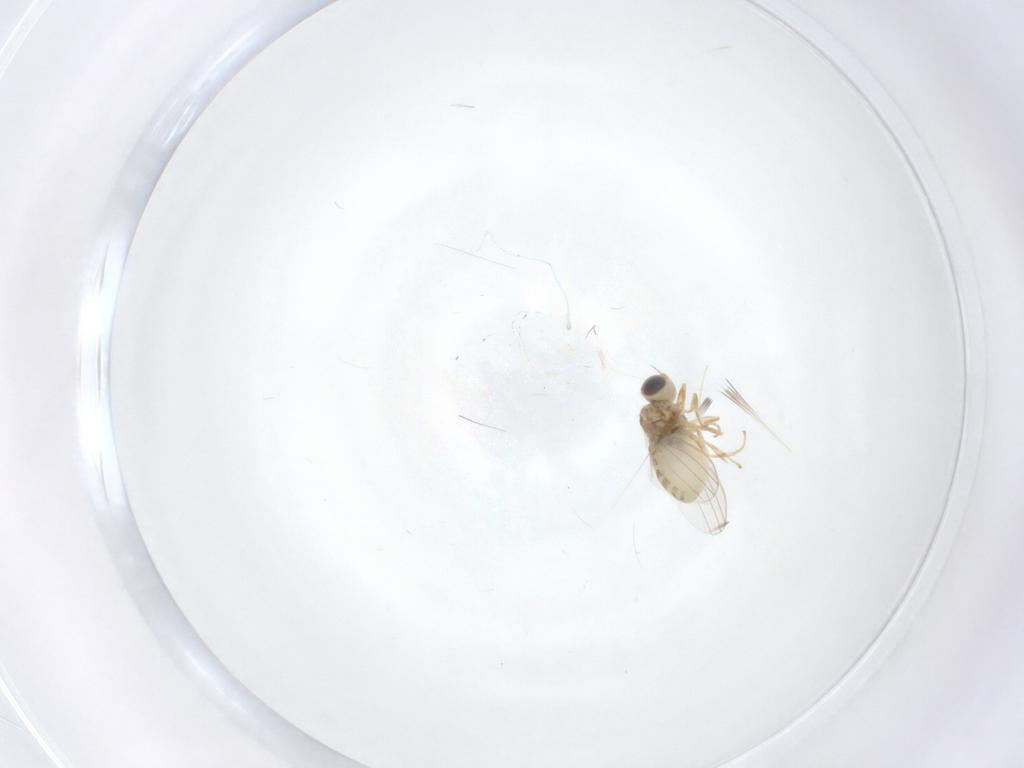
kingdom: Animalia
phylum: Arthropoda
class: Insecta
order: Diptera
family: Chyromyidae
